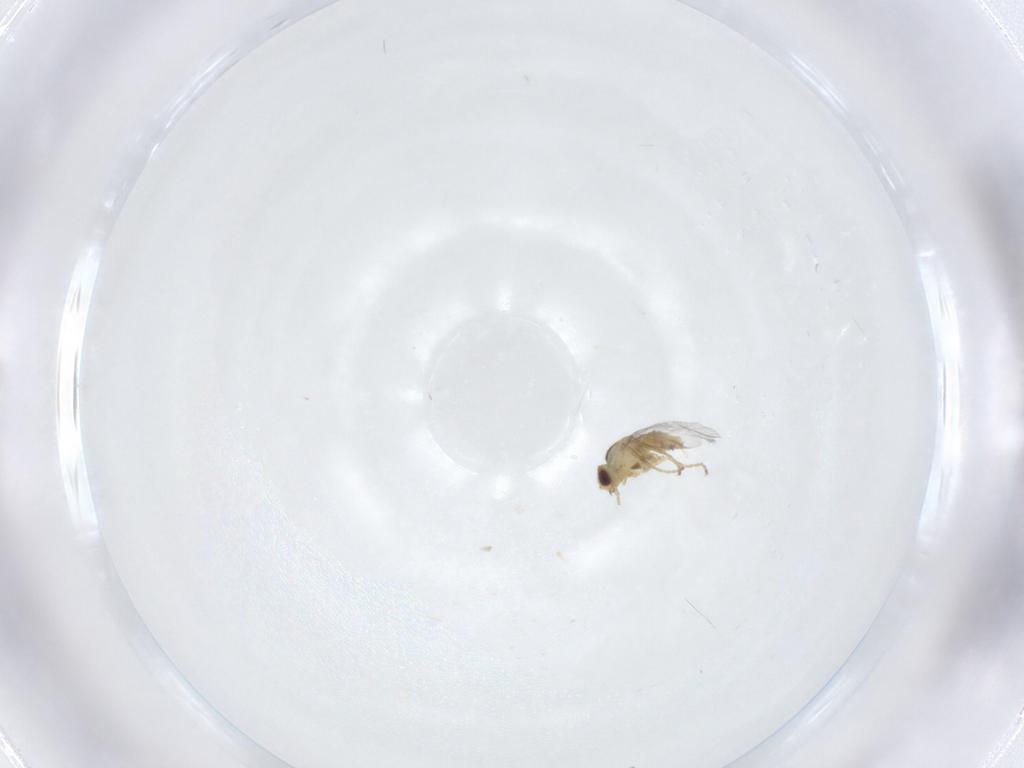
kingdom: Animalia
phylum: Arthropoda
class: Insecta
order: Diptera
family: Agromyzidae
